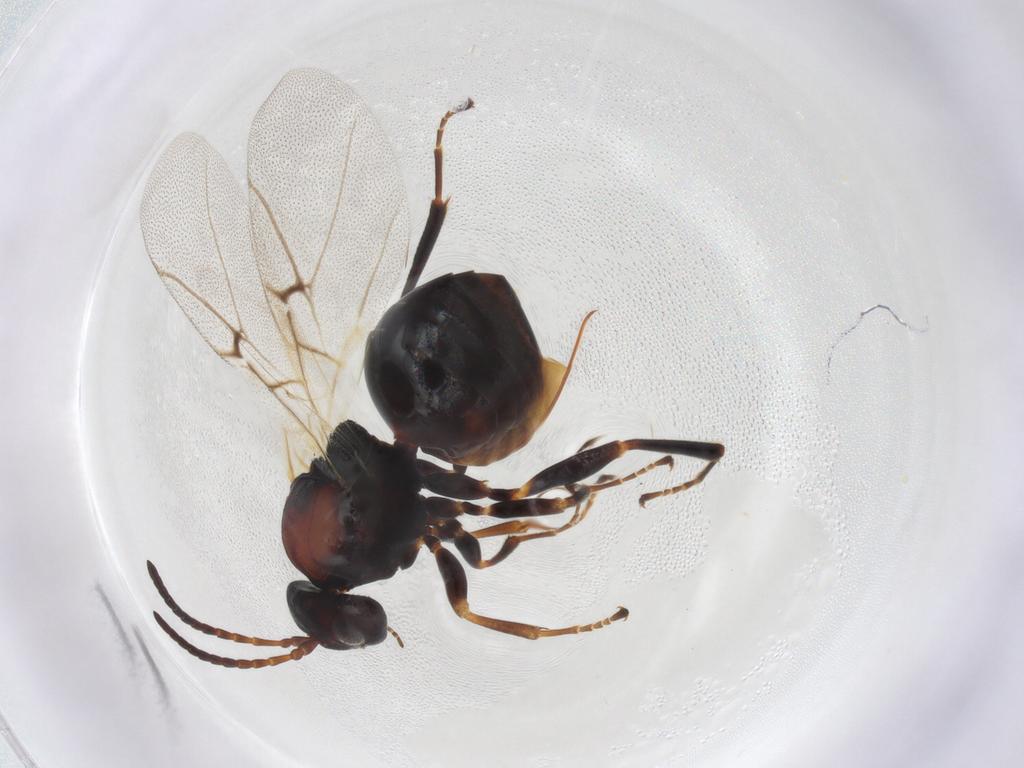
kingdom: Animalia
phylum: Arthropoda
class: Insecta
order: Hymenoptera
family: Cynipidae
